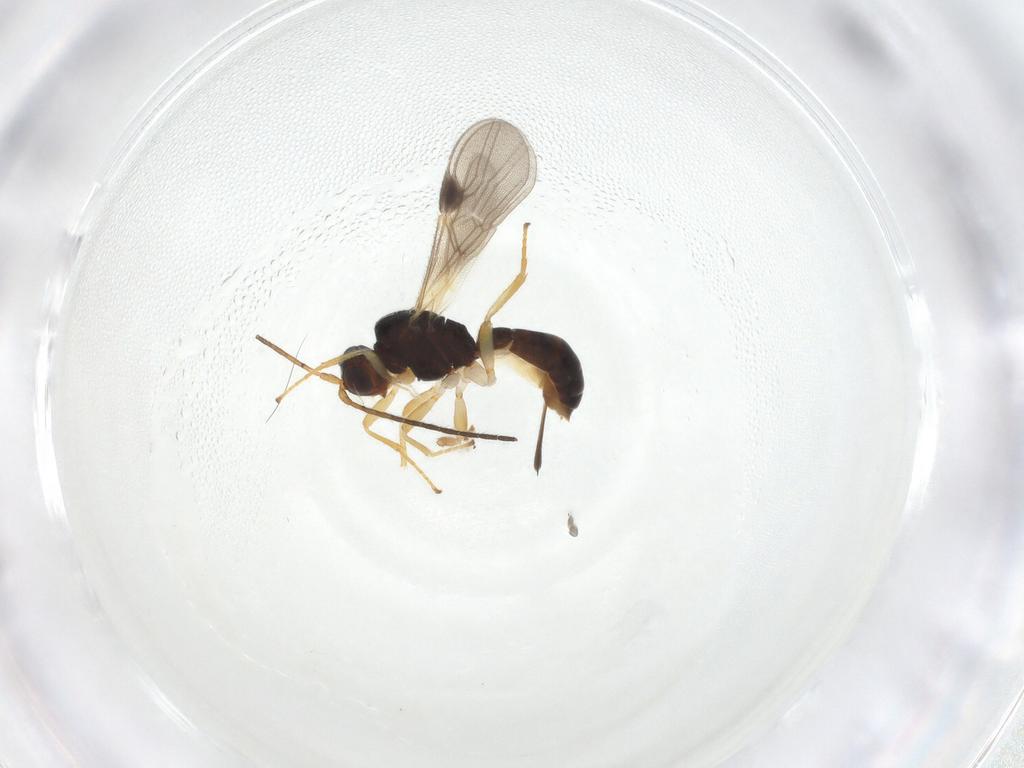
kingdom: Animalia
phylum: Arthropoda
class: Insecta
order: Hymenoptera
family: Braconidae
